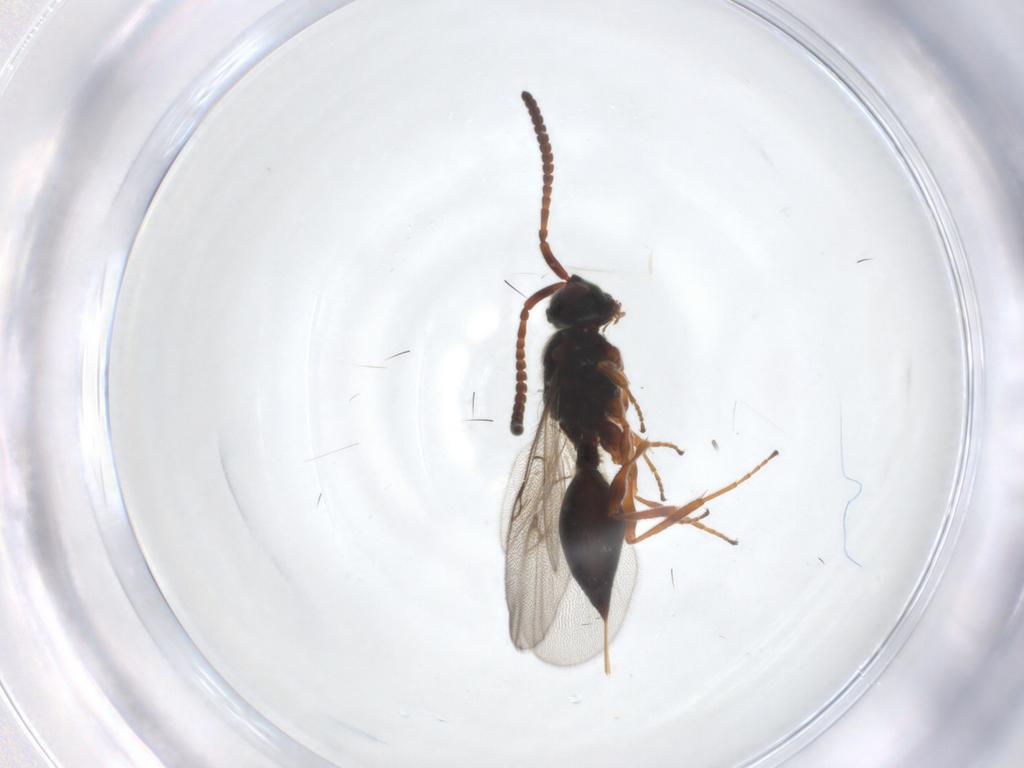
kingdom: Animalia
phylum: Arthropoda
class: Insecta
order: Hymenoptera
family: Diapriidae
